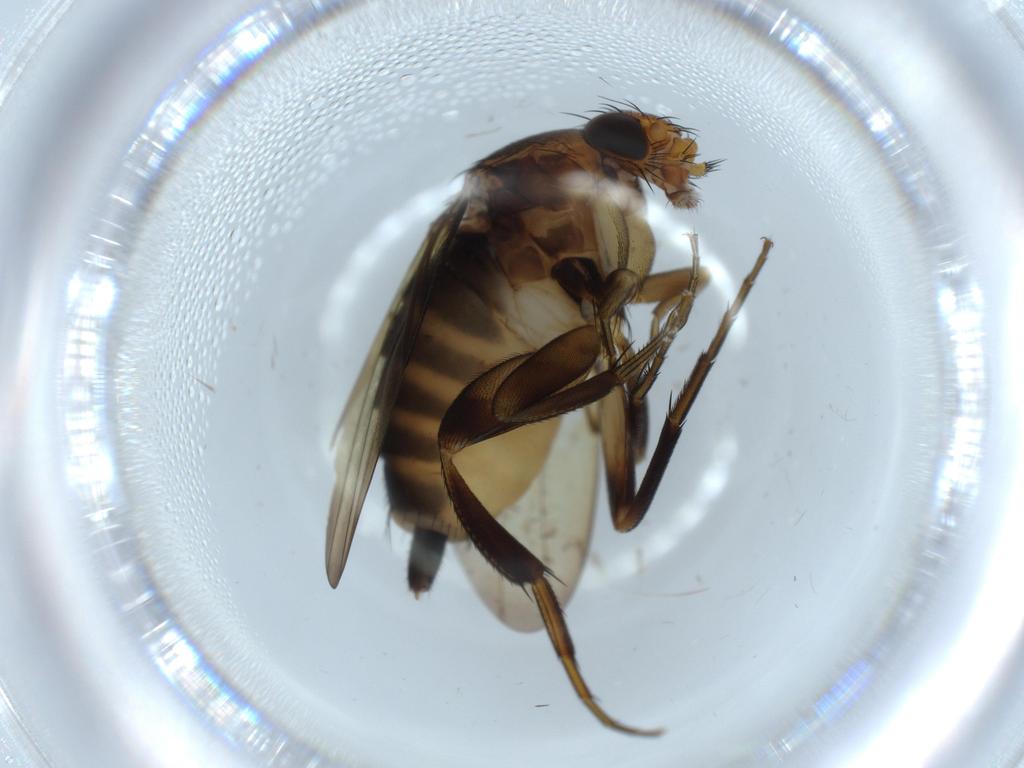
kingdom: Animalia
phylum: Arthropoda
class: Insecta
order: Diptera
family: Phoridae
